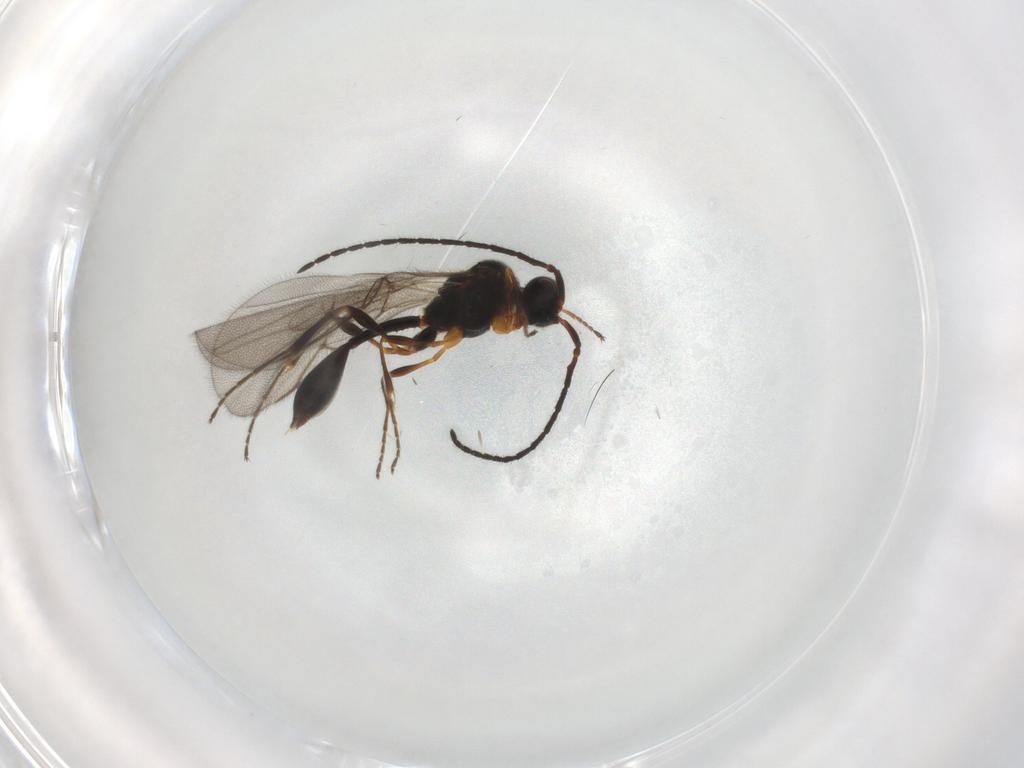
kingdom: Animalia
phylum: Arthropoda
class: Insecta
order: Hymenoptera
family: Diapriidae
